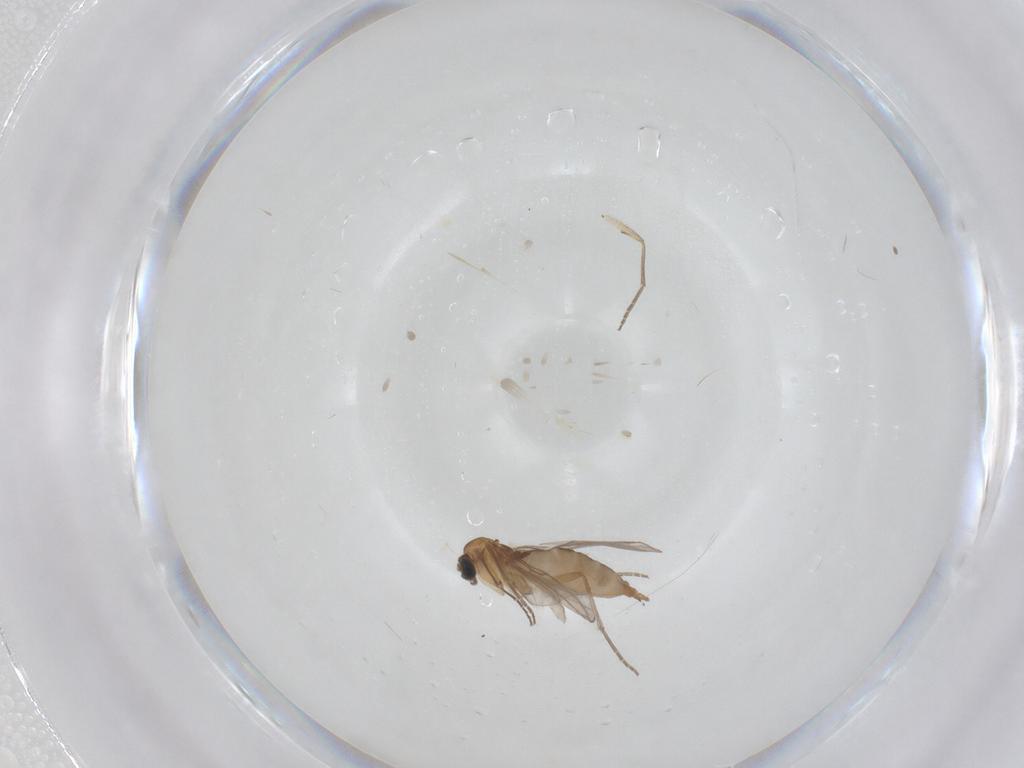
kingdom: Animalia
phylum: Arthropoda
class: Insecta
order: Diptera
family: Sciaridae
